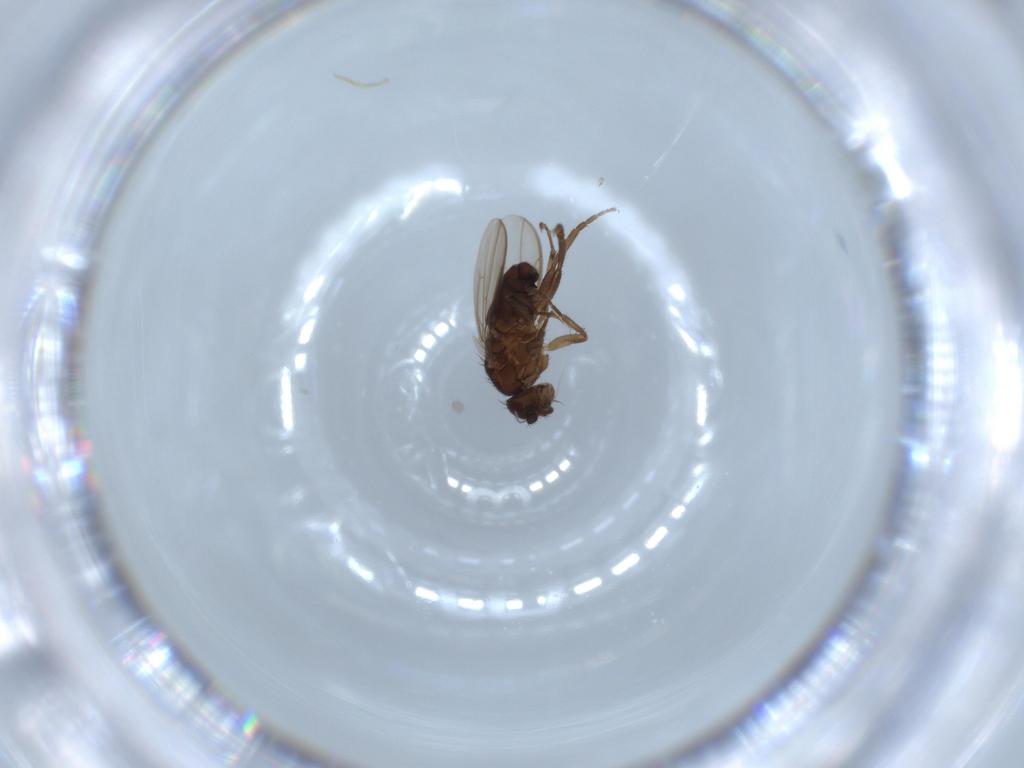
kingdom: Animalia
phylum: Arthropoda
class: Insecta
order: Diptera
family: Sphaeroceridae
